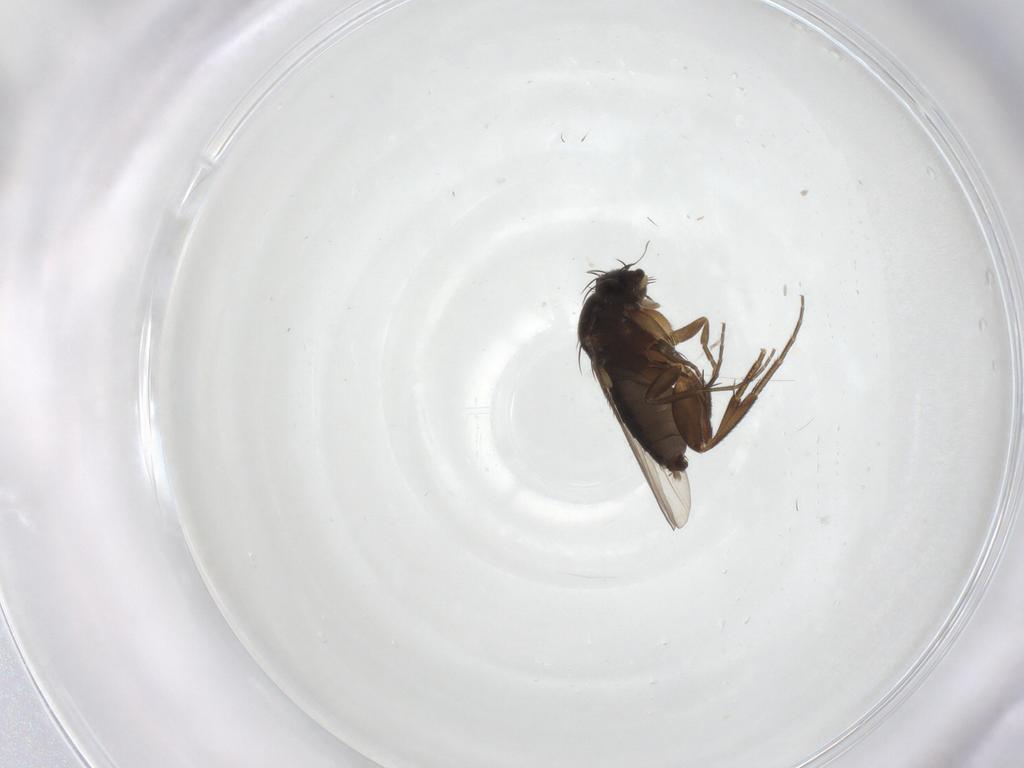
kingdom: Animalia
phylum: Arthropoda
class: Insecta
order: Diptera
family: Phoridae
